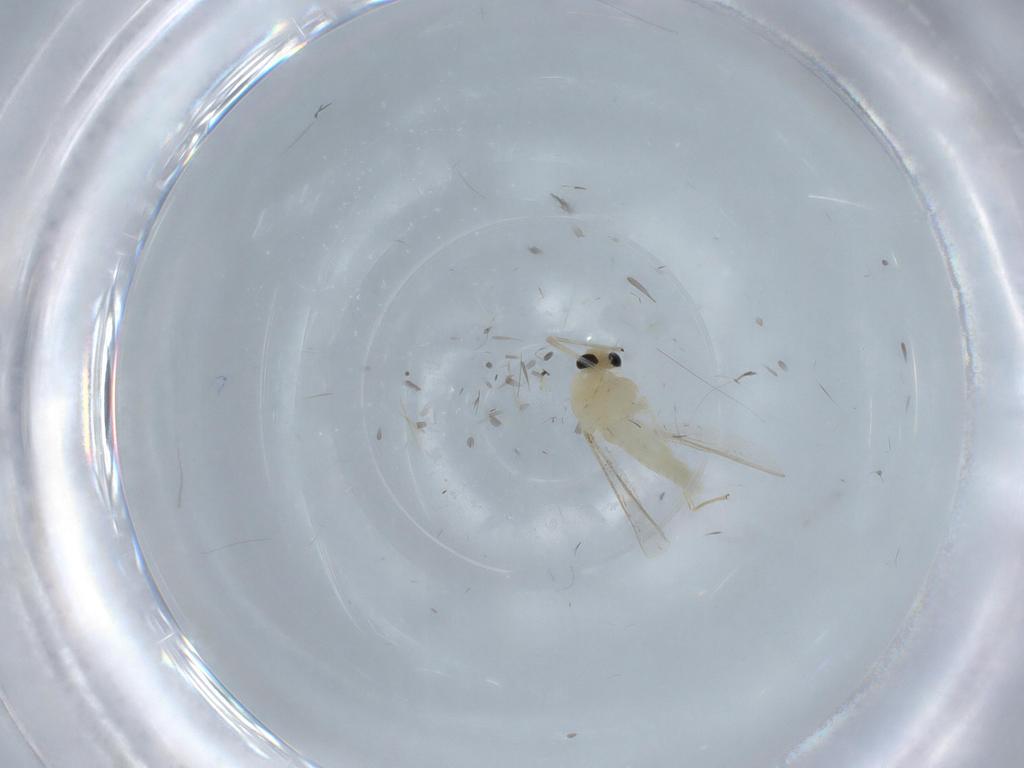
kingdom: Animalia
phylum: Arthropoda
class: Insecta
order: Diptera
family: Chironomidae
